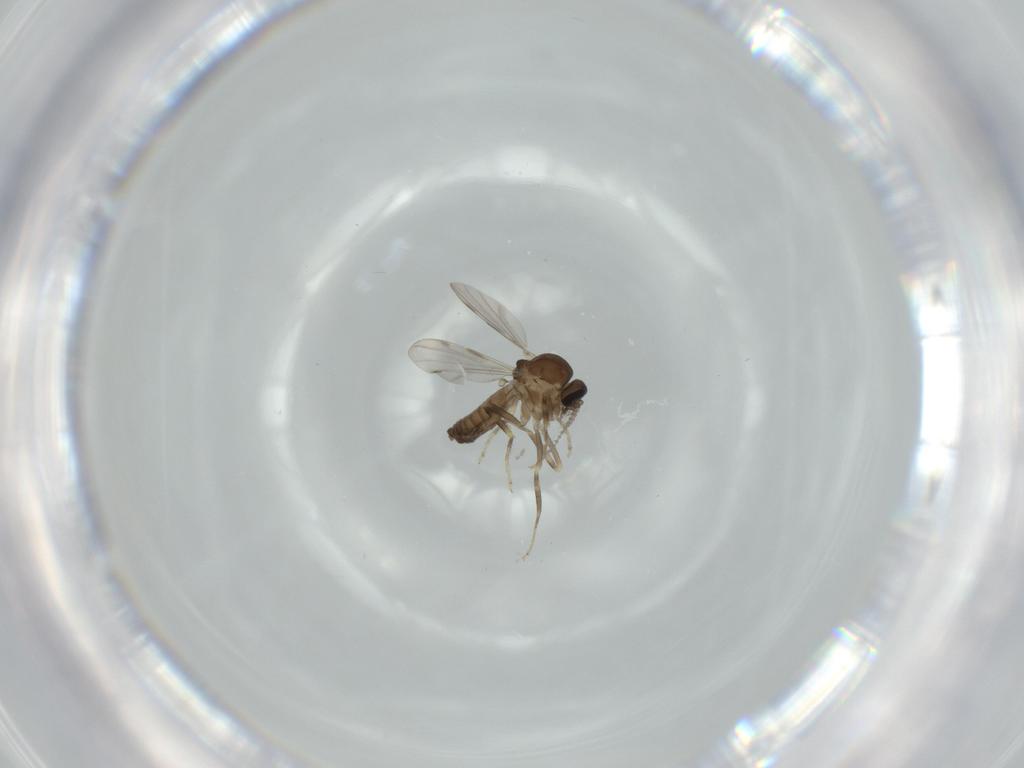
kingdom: Animalia
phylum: Arthropoda
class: Insecta
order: Diptera
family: Ceratopogonidae
